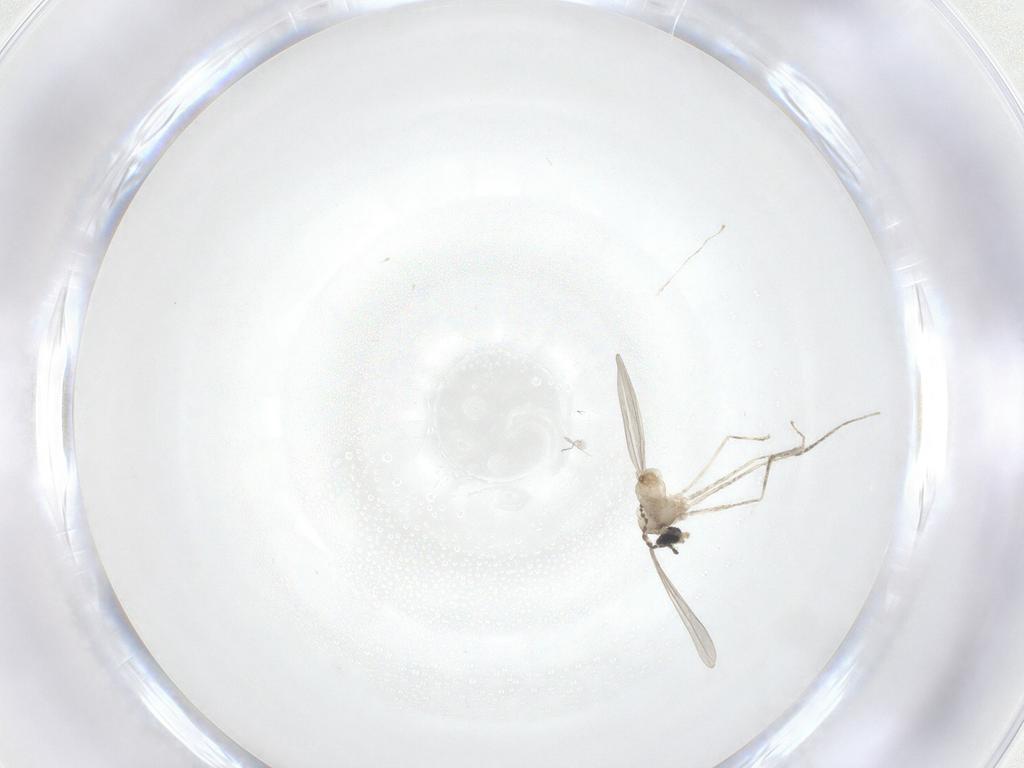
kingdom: Animalia
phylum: Arthropoda
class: Insecta
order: Diptera
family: Cecidomyiidae
